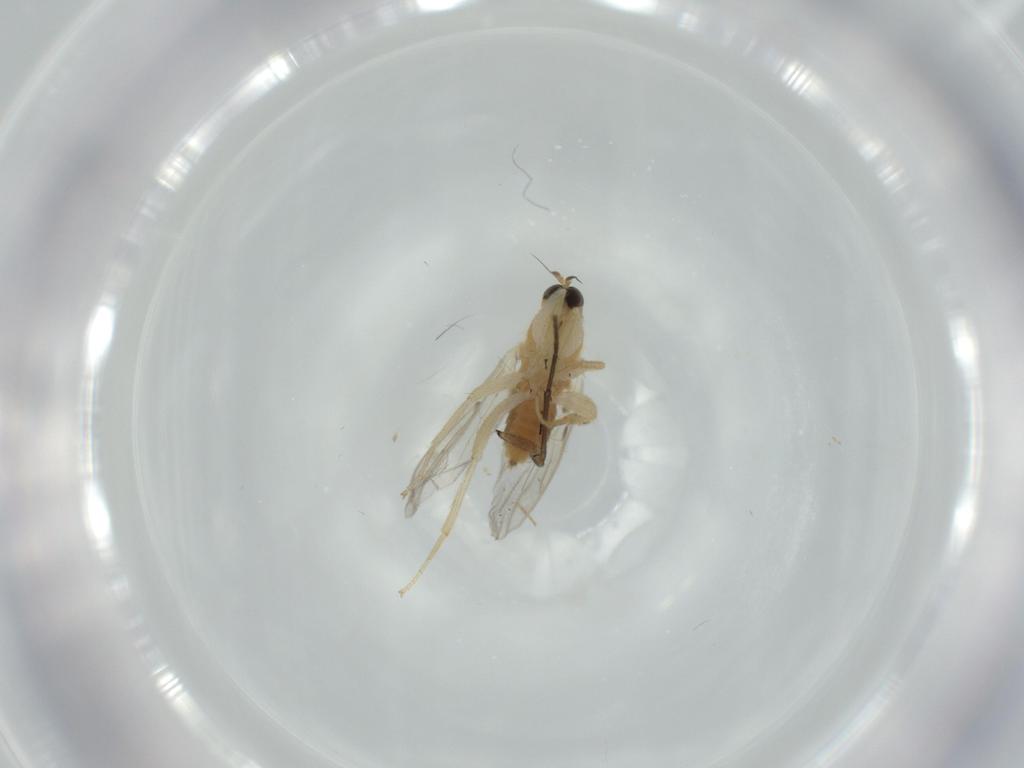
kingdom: Animalia
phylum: Arthropoda
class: Insecta
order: Diptera
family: Hybotidae
